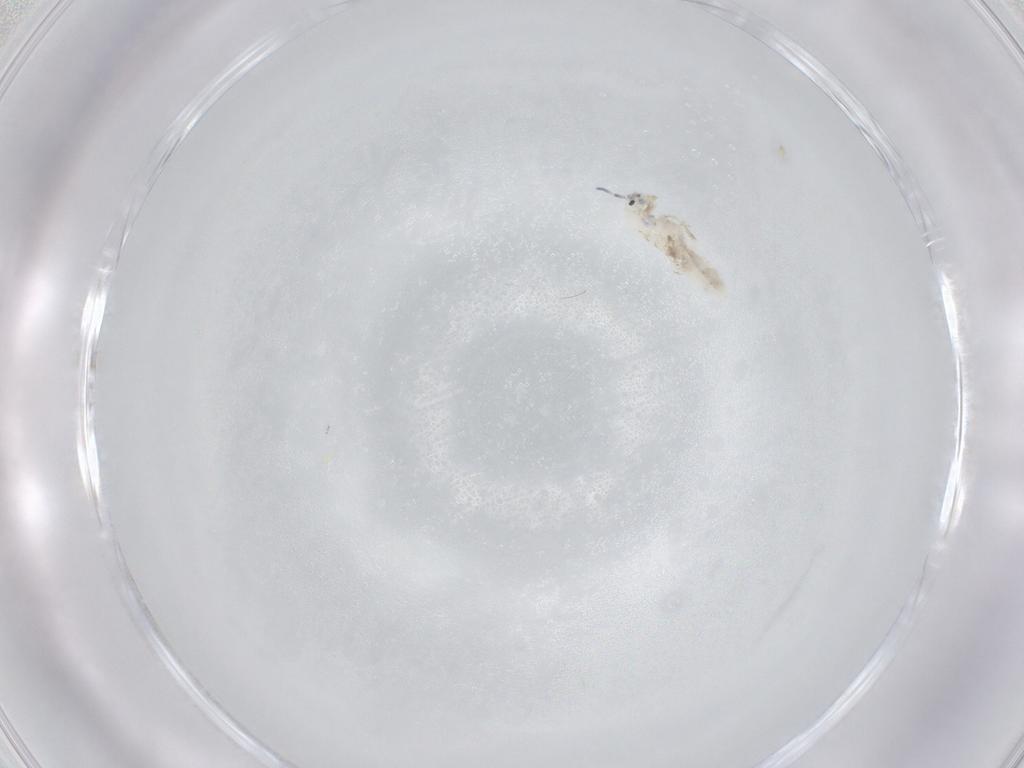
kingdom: Animalia
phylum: Arthropoda
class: Collembola
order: Entomobryomorpha
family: Entomobryidae
